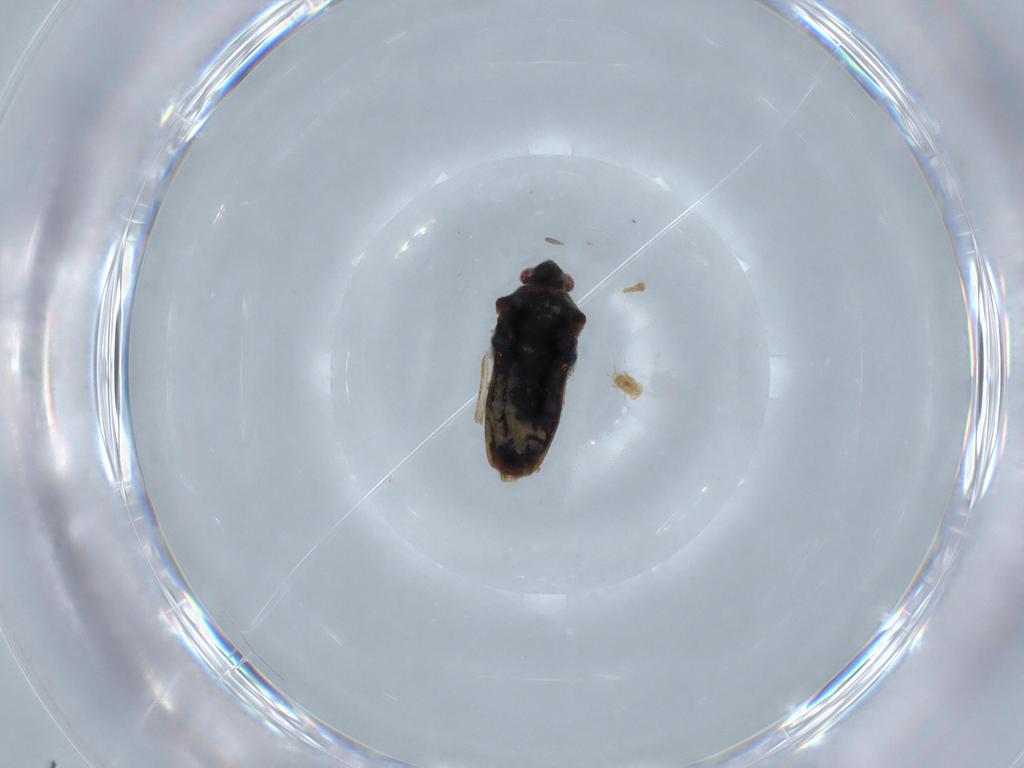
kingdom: Animalia
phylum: Arthropoda
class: Insecta
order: Hemiptera
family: Veliidae
